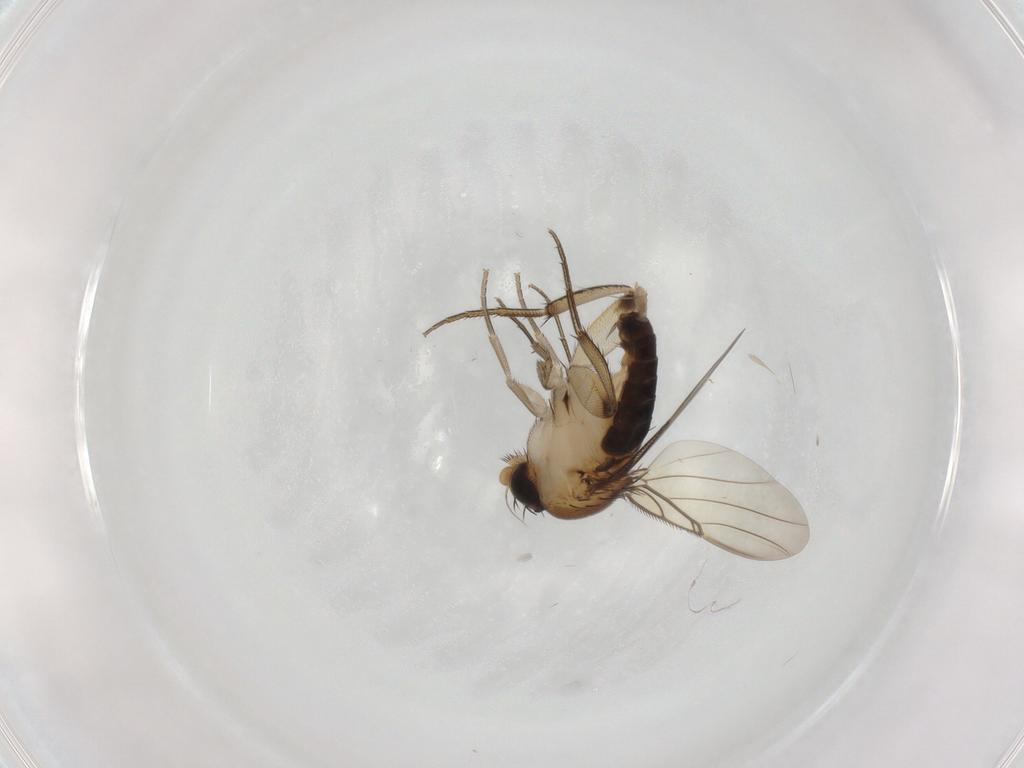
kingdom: Animalia
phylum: Arthropoda
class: Insecta
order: Diptera
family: Phoridae
